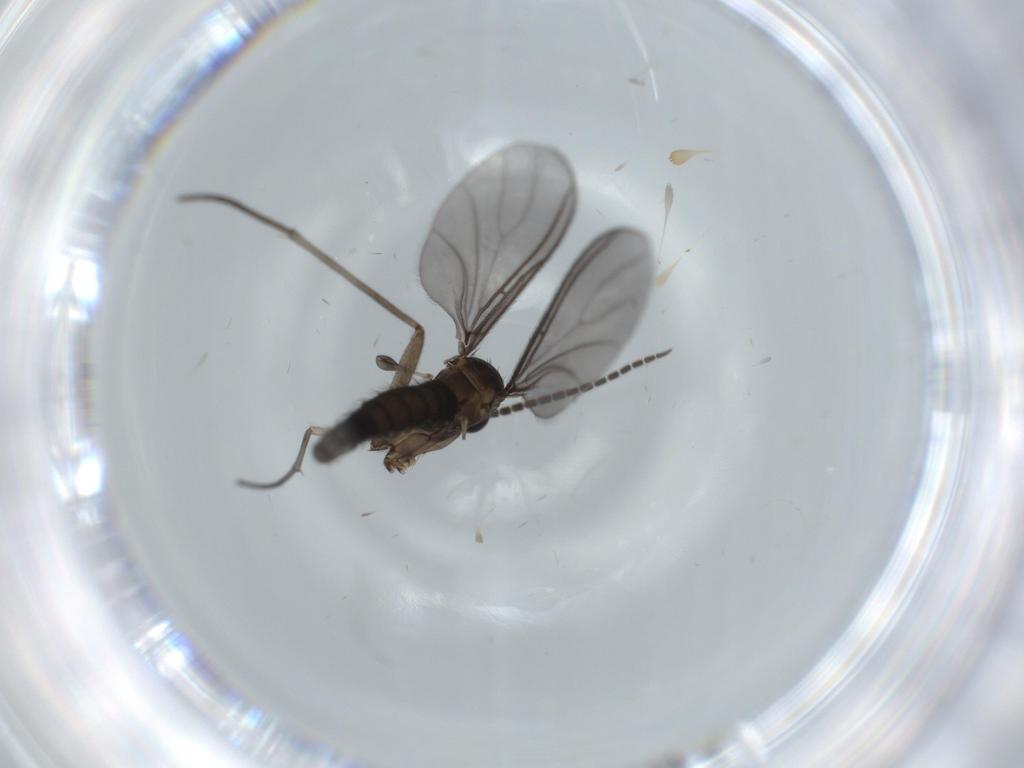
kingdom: Animalia
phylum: Arthropoda
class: Insecta
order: Diptera
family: Sciaridae
